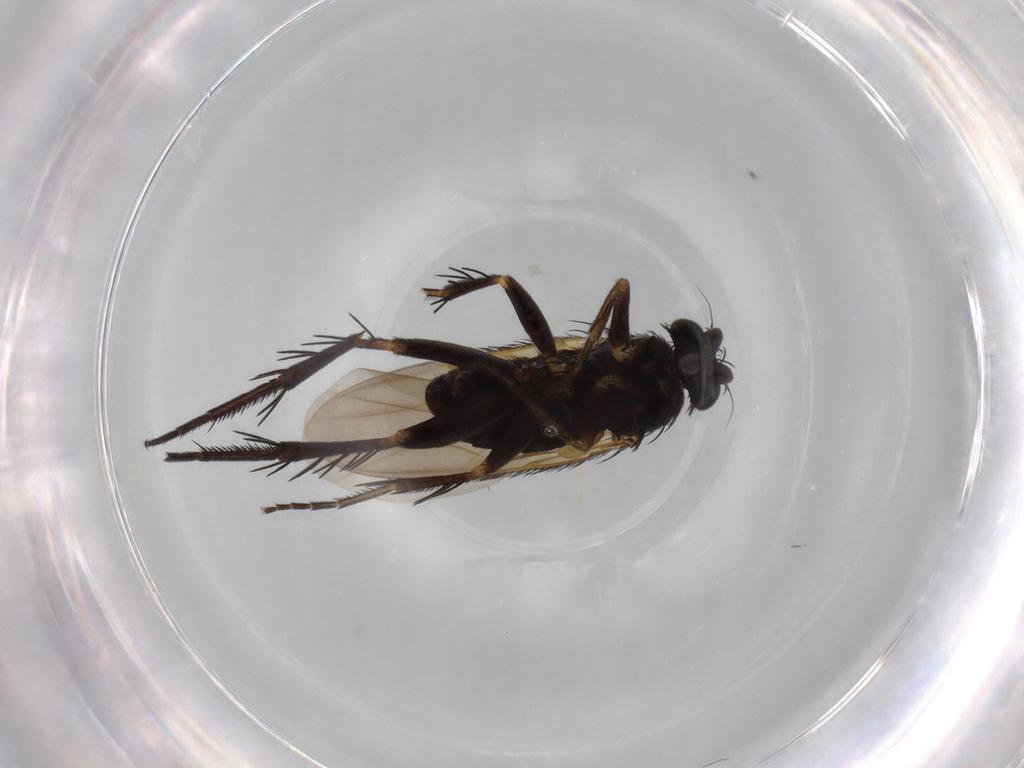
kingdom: Animalia
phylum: Arthropoda
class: Insecta
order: Diptera
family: Phoridae
